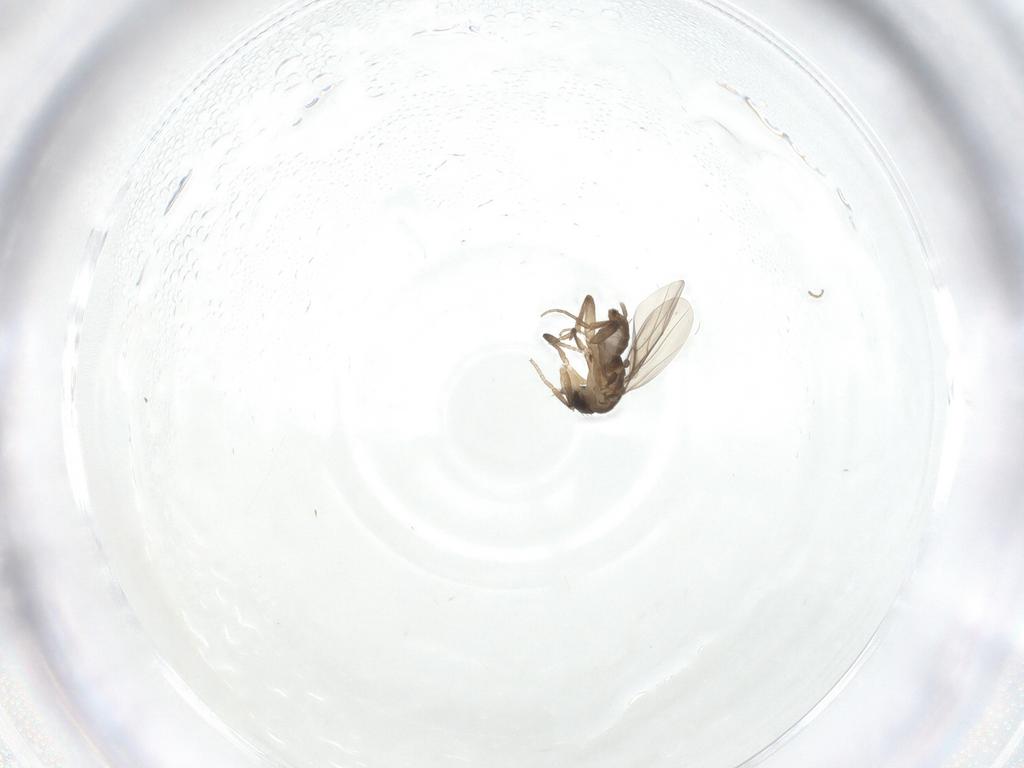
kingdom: Animalia
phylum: Arthropoda
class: Insecta
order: Diptera
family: Phoridae
